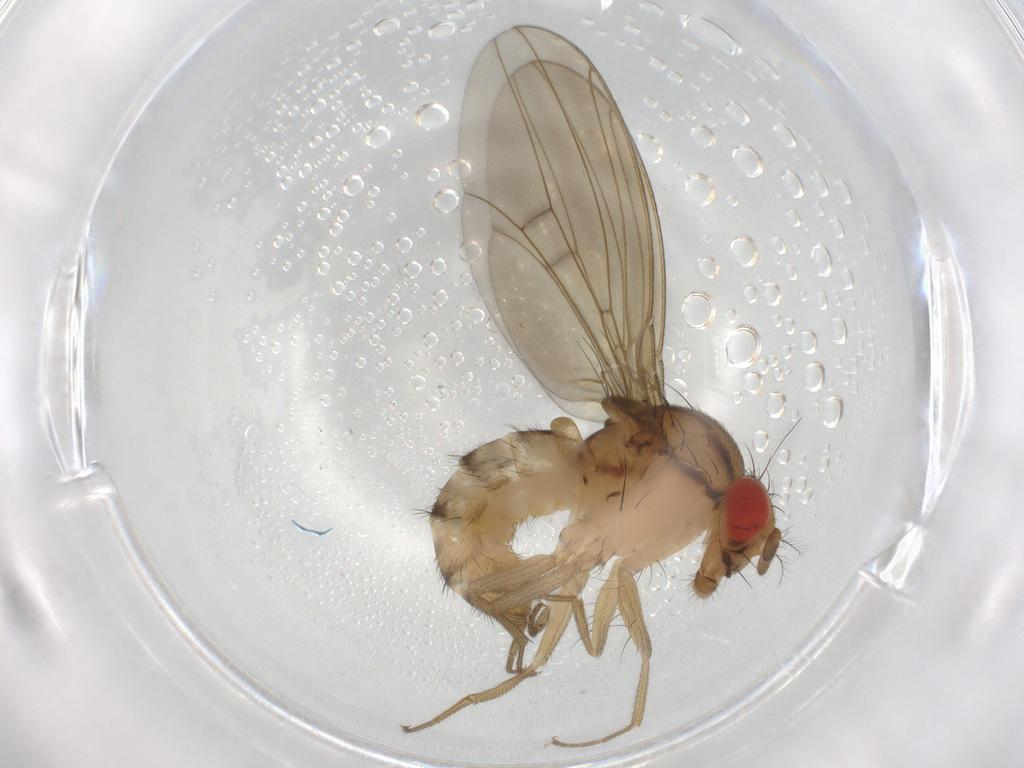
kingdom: Animalia
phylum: Arthropoda
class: Insecta
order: Diptera
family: Drosophilidae
